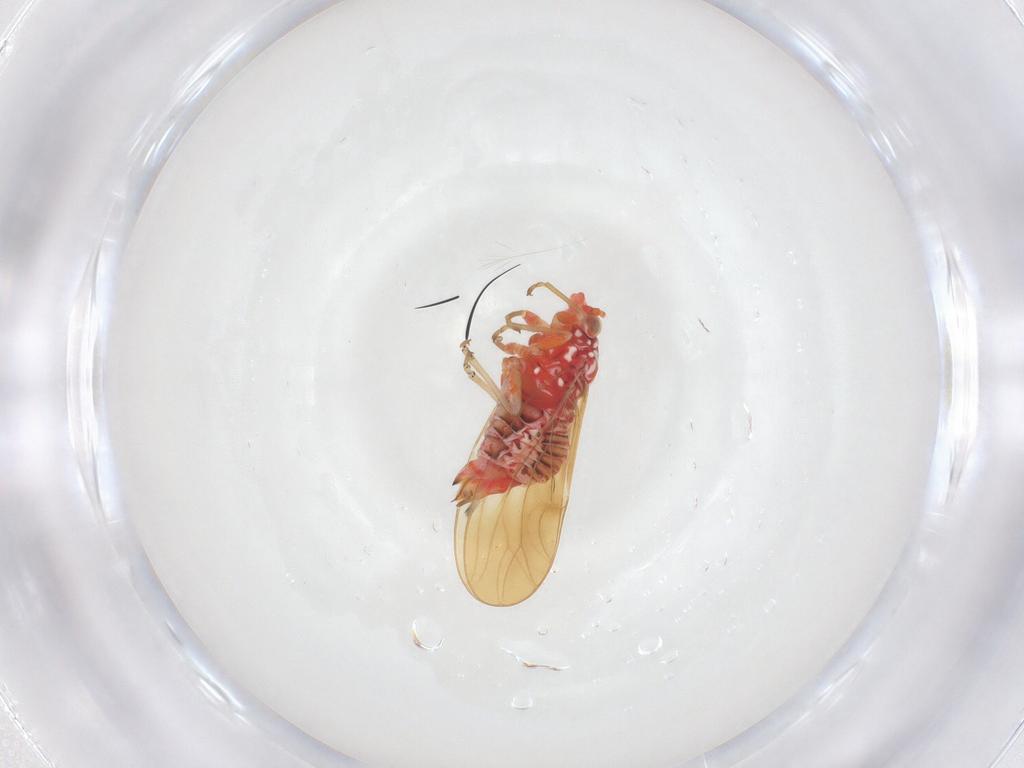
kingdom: Animalia
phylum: Arthropoda
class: Insecta
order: Hemiptera
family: Psyllidae
